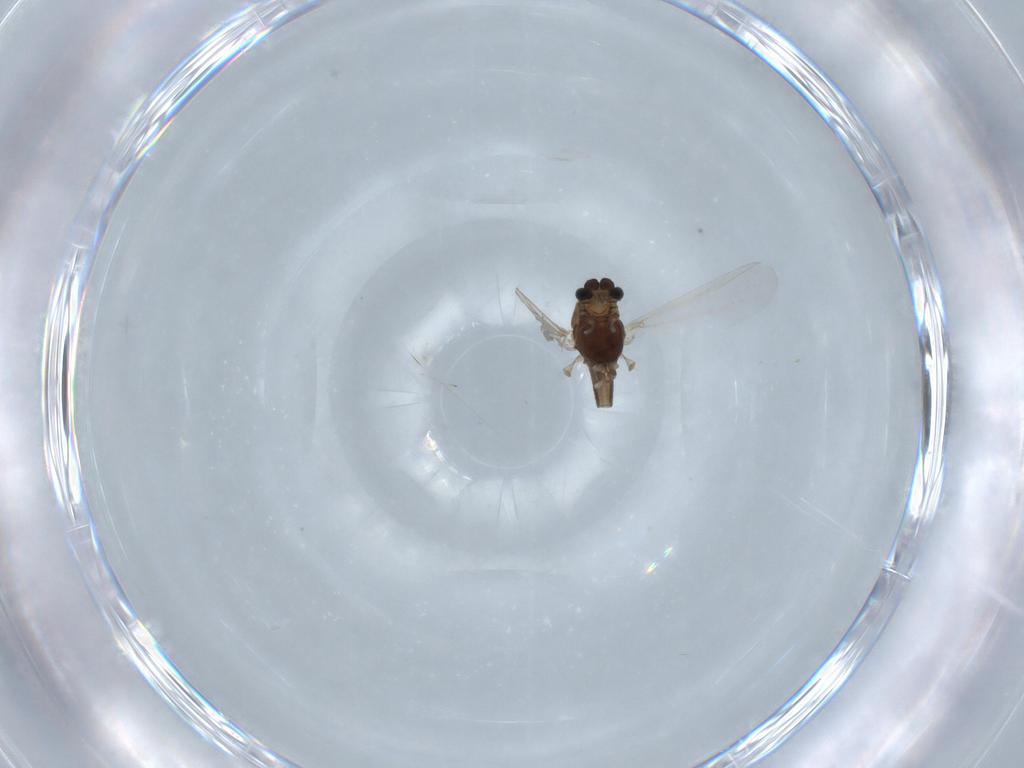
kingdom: Animalia
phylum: Arthropoda
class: Insecta
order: Diptera
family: Chironomidae
